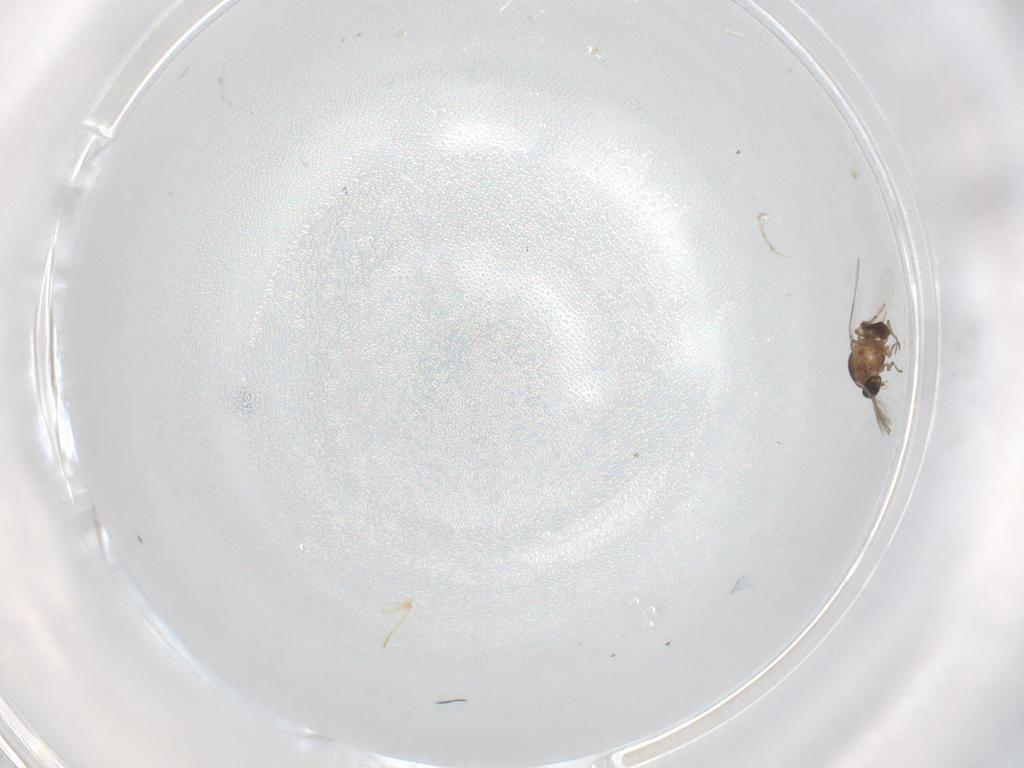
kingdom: Animalia
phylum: Arthropoda
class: Insecta
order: Diptera
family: Ceratopogonidae
